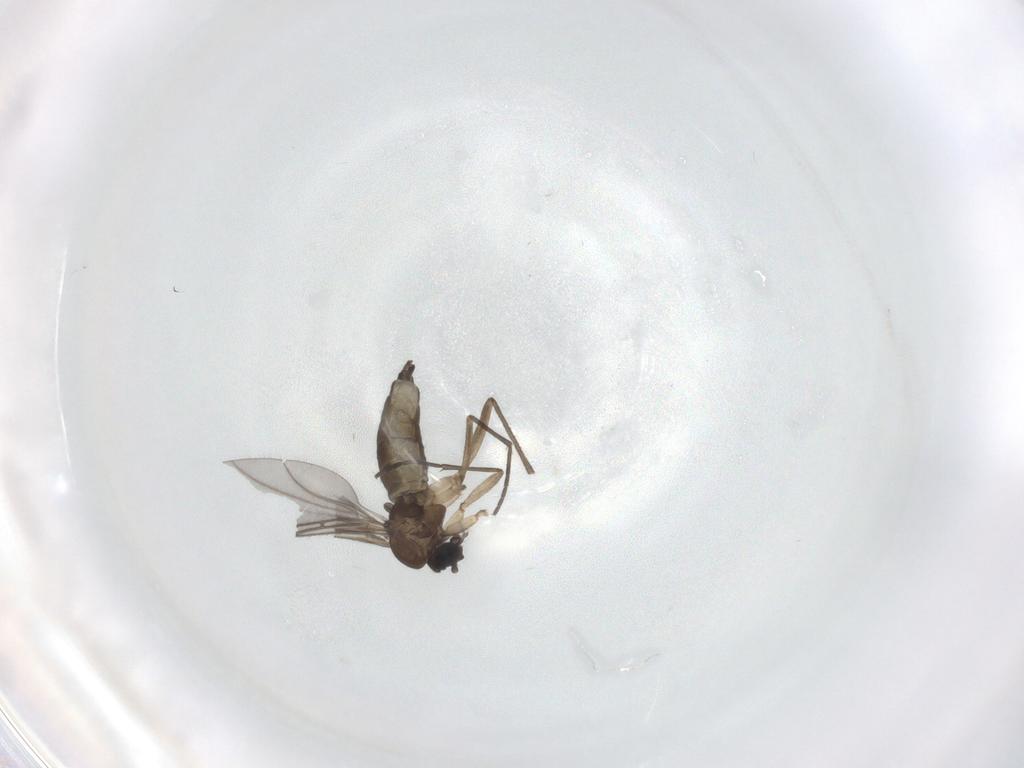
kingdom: Animalia
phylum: Arthropoda
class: Insecta
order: Diptera
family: Sciaridae
